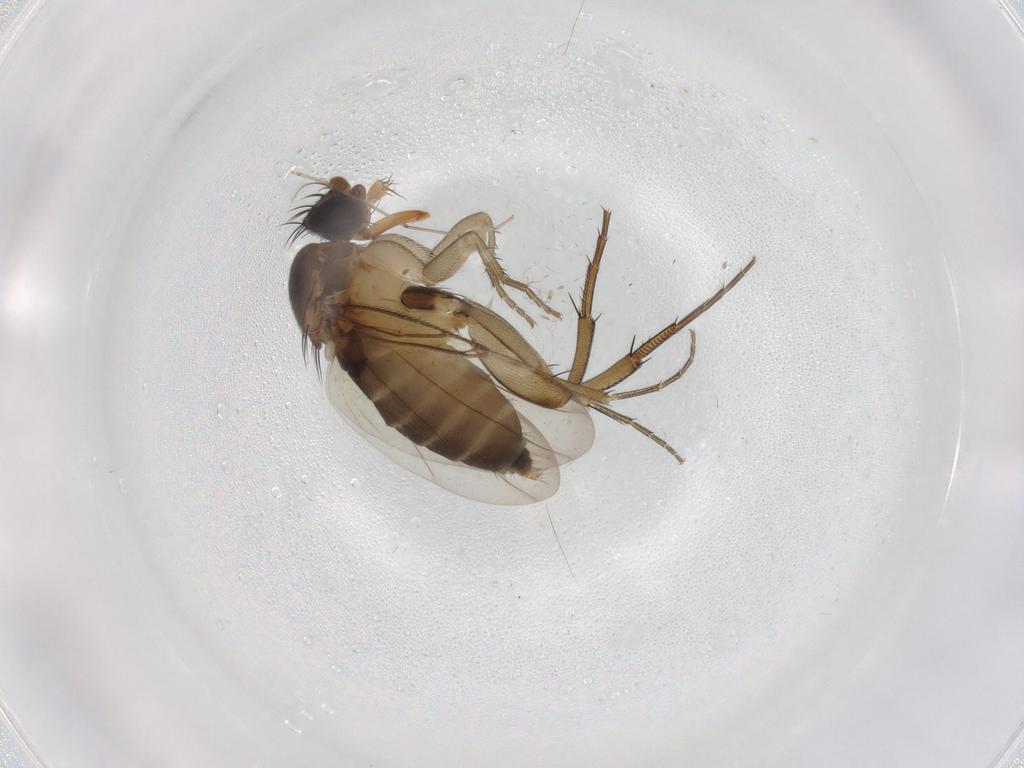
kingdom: Animalia
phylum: Arthropoda
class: Insecta
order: Diptera
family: Phoridae
